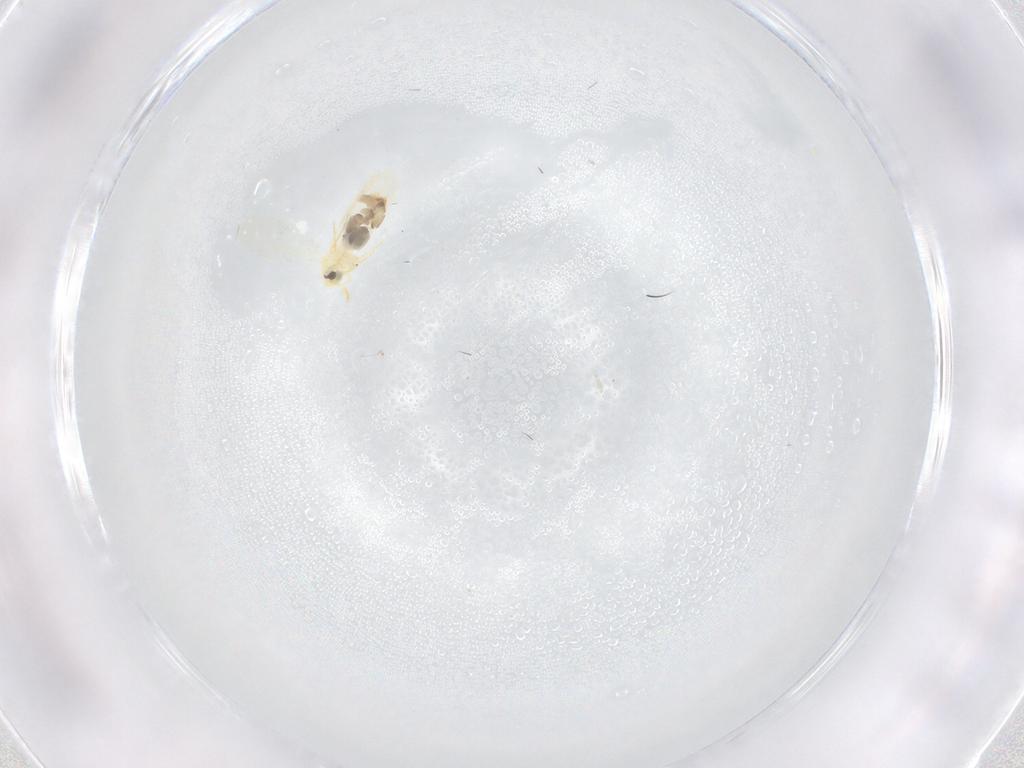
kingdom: Animalia
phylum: Arthropoda
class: Insecta
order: Hemiptera
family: Aleyrodidae
